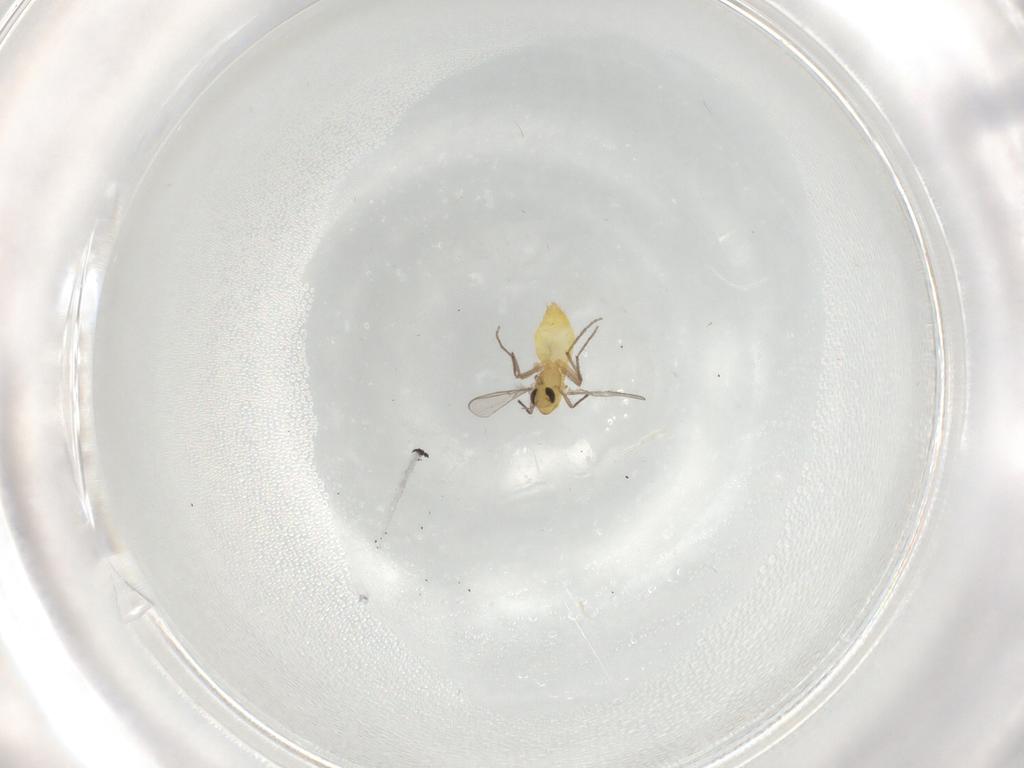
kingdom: Animalia
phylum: Arthropoda
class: Insecta
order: Diptera
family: Chironomidae
